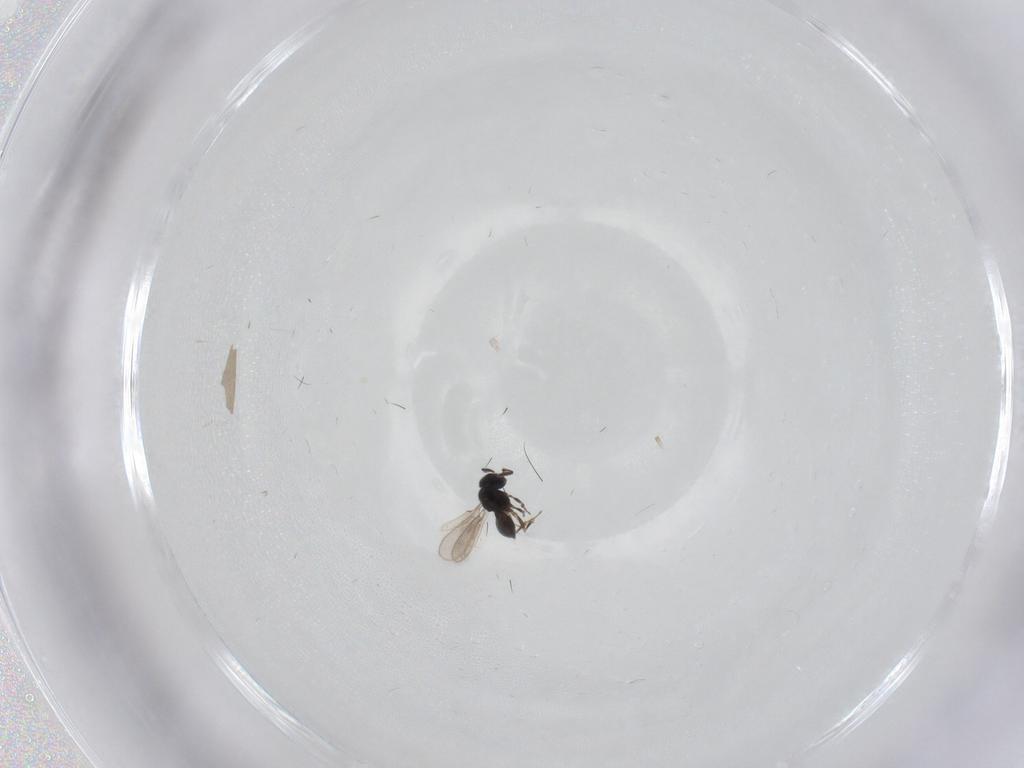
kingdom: Animalia
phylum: Arthropoda
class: Insecta
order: Hymenoptera
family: Scelionidae
